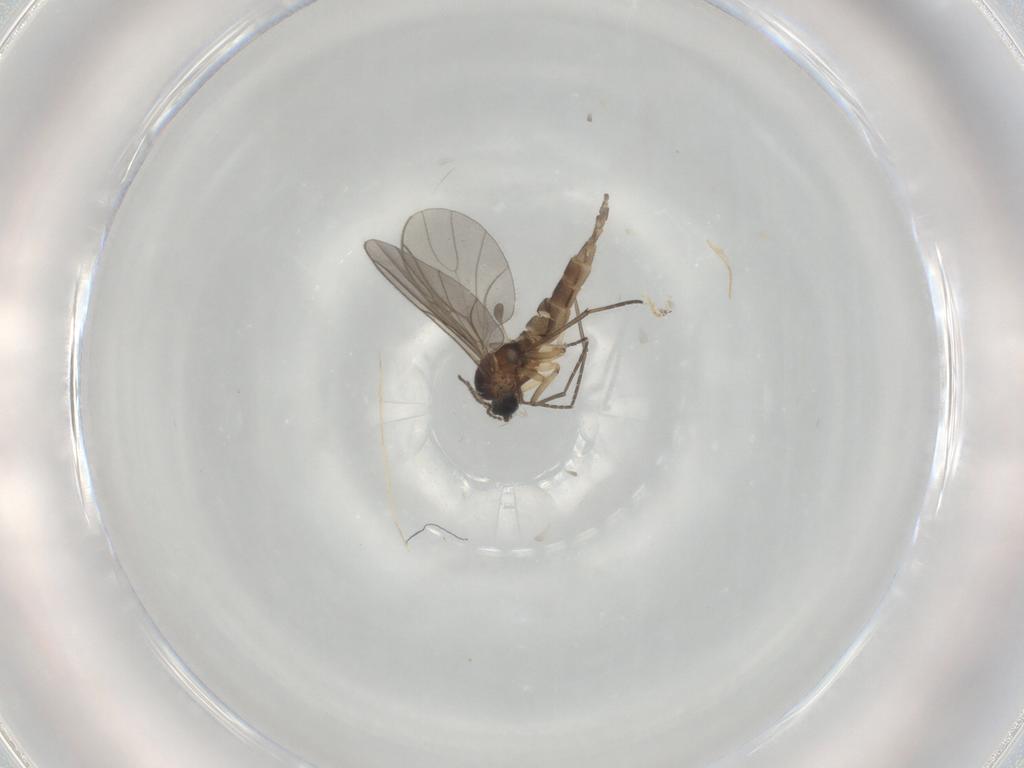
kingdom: Animalia
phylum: Arthropoda
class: Insecta
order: Diptera
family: Sciaridae
